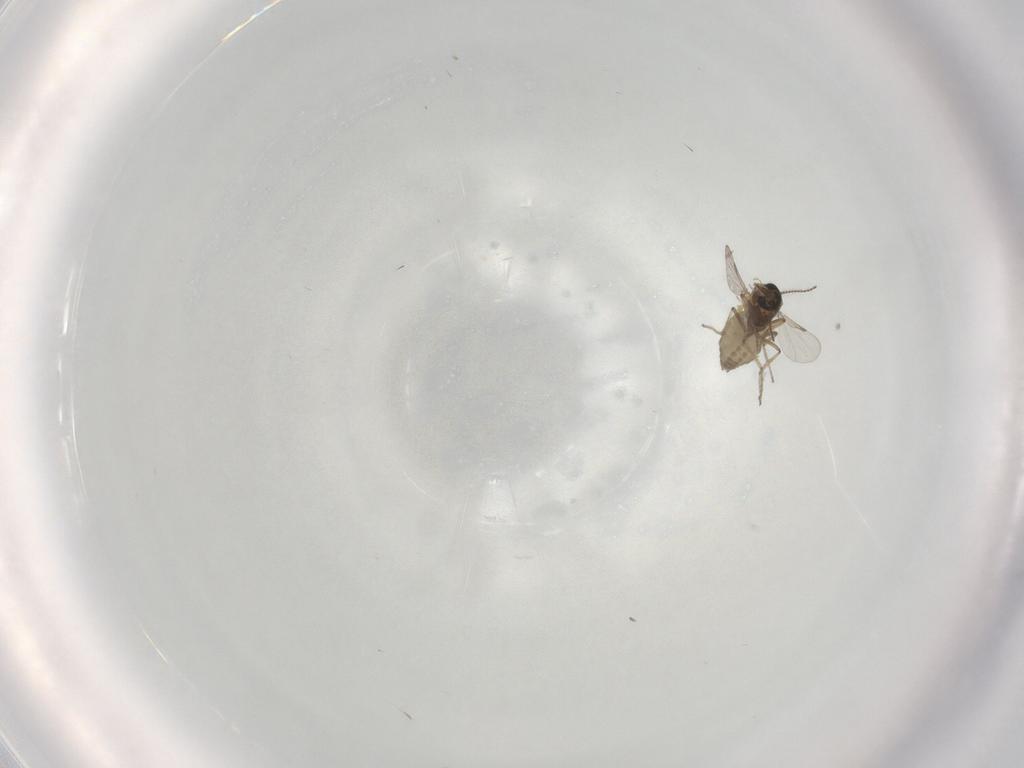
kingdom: Animalia
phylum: Arthropoda
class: Insecta
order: Diptera
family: Ceratopogonidae
